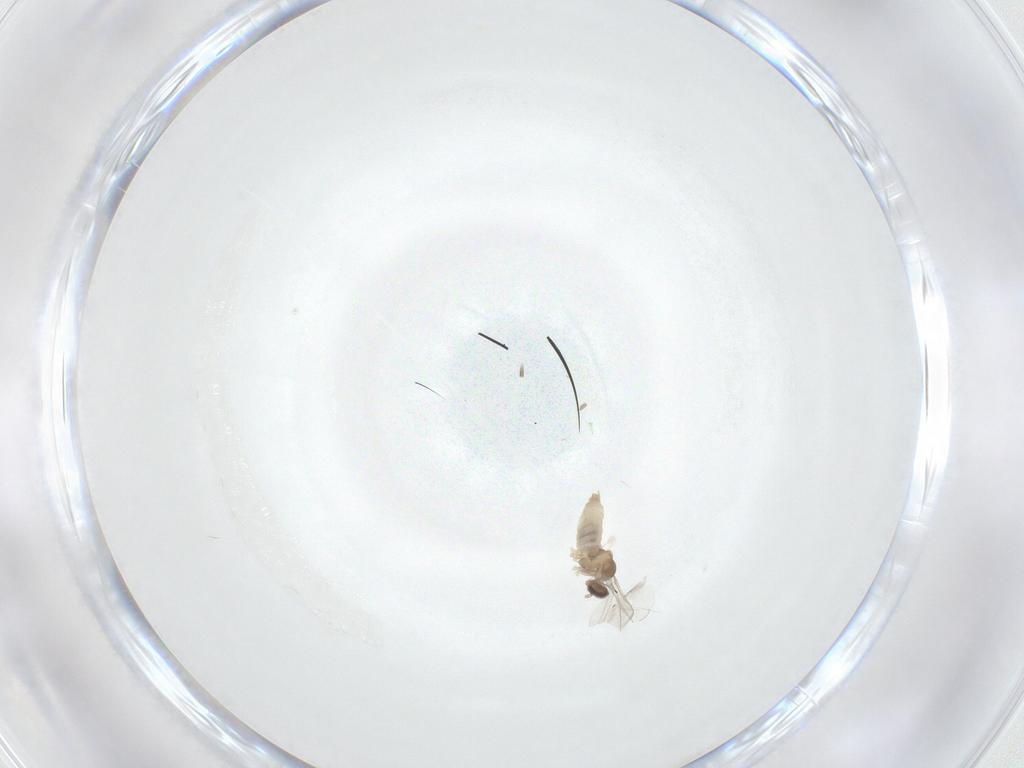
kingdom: Animalia
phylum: Arthropoda
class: Insecta
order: Diptera
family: Cecidomyiidae
